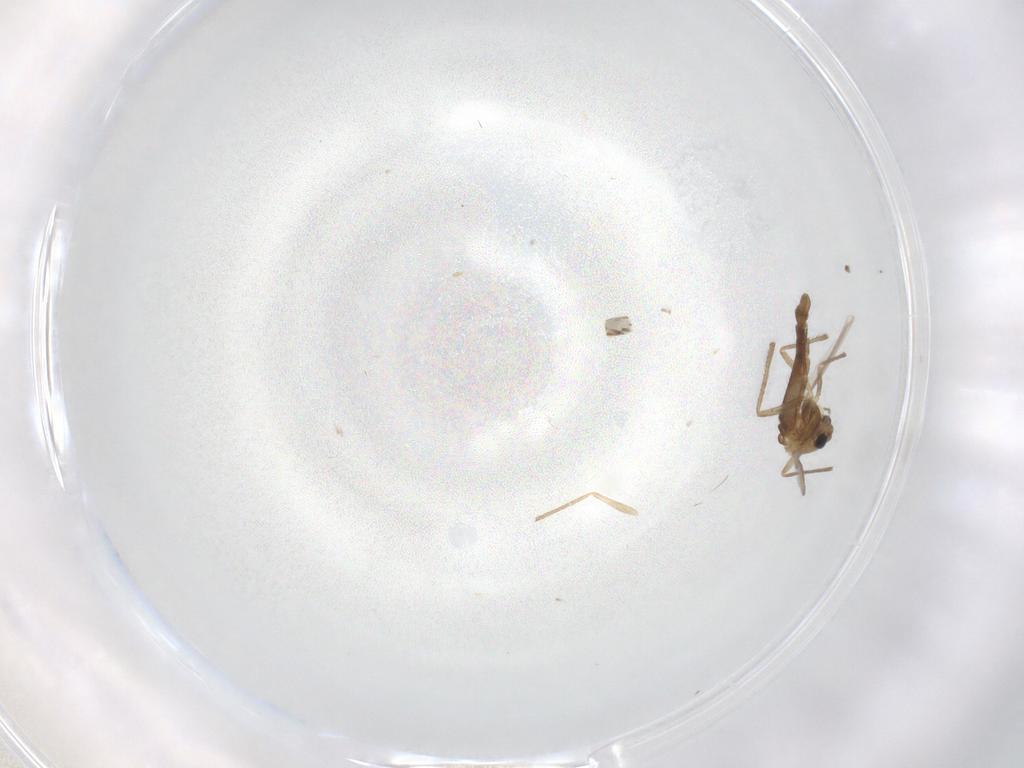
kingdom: Animalia
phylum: Arthropoda
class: Insecta
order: Diptera
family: Chironomidae
